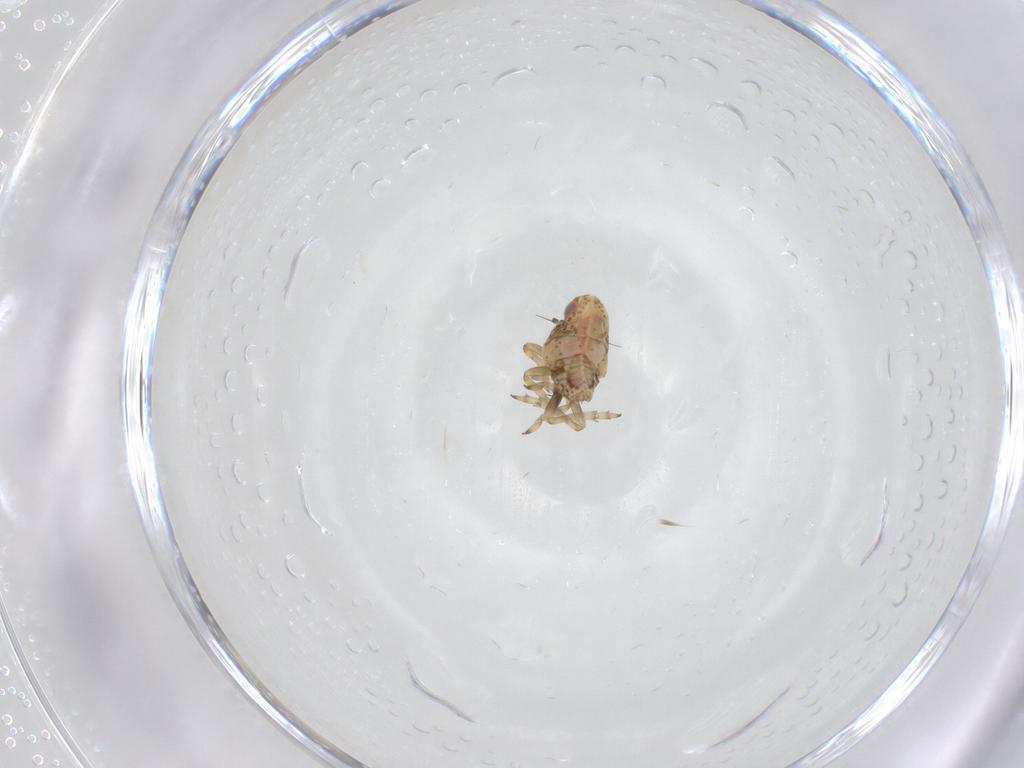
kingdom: Animalia
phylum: Arthropoda
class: Insecta
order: Hemiptera
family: Tropiduchidae
